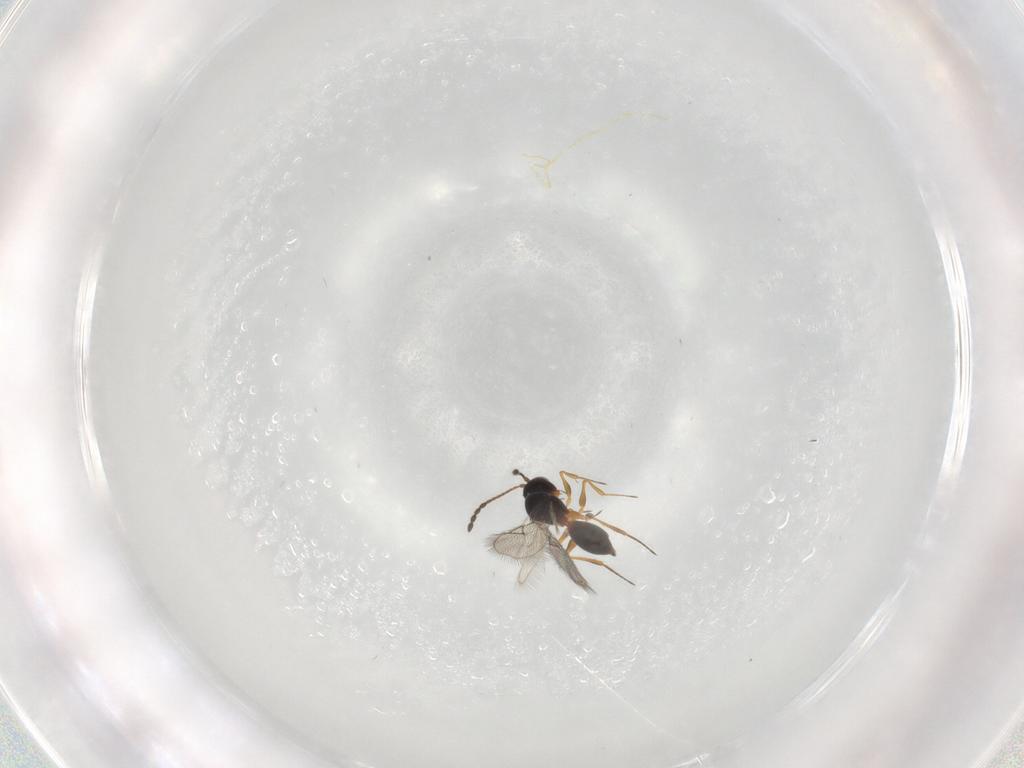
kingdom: Animalia
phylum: Arthropoda
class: Insecta
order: Hymenoptera
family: Figitidae
